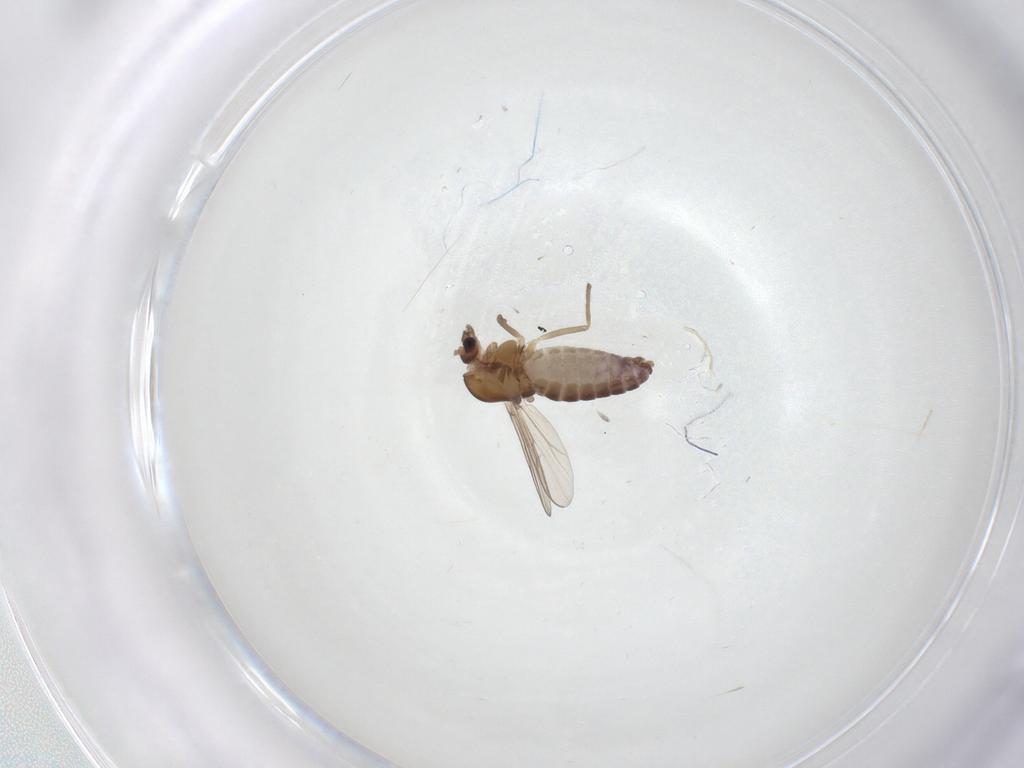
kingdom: Animalia
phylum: Arthropoda
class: Insecta
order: Diptera
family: Chironomidae
